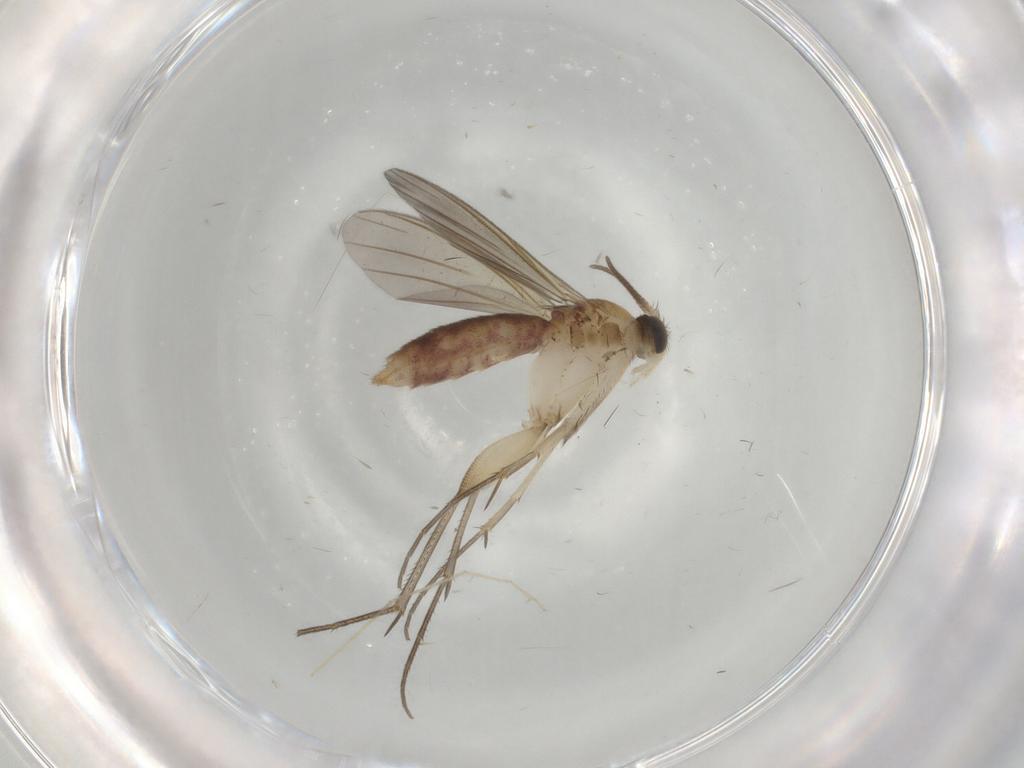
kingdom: Animalia
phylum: Arthropoda
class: Insecta
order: Diptera
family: Mycetophilidae
